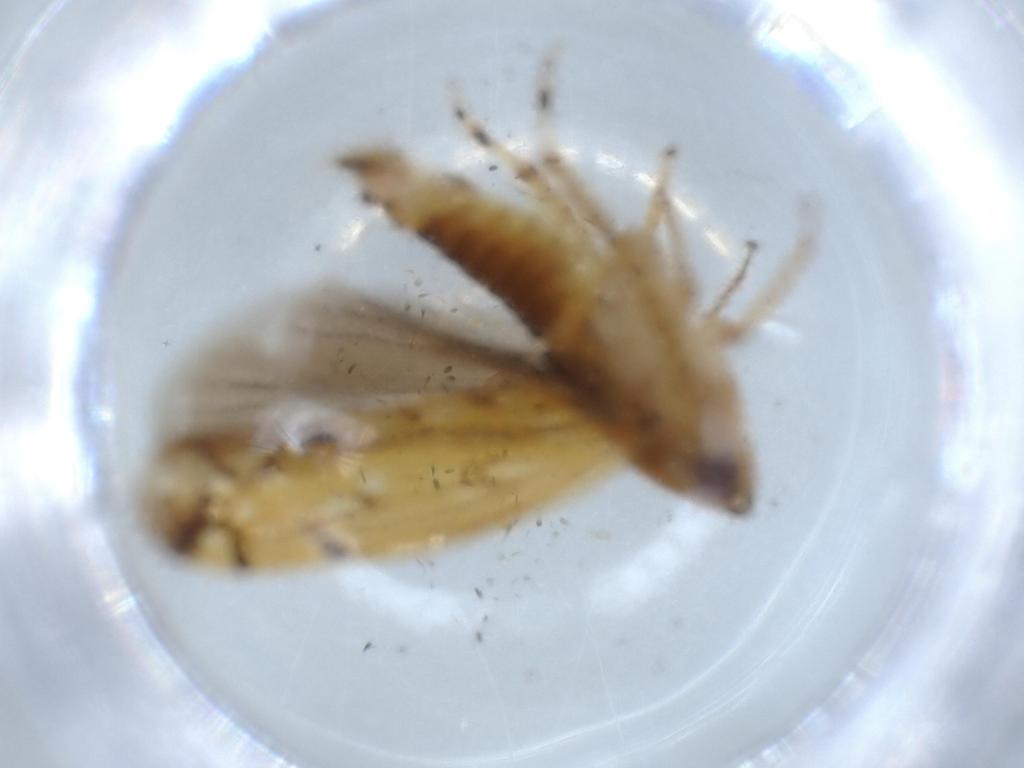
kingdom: Animalia
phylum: Arthropoda
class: Insecta
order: Hemiptera
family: Cicadellidae
